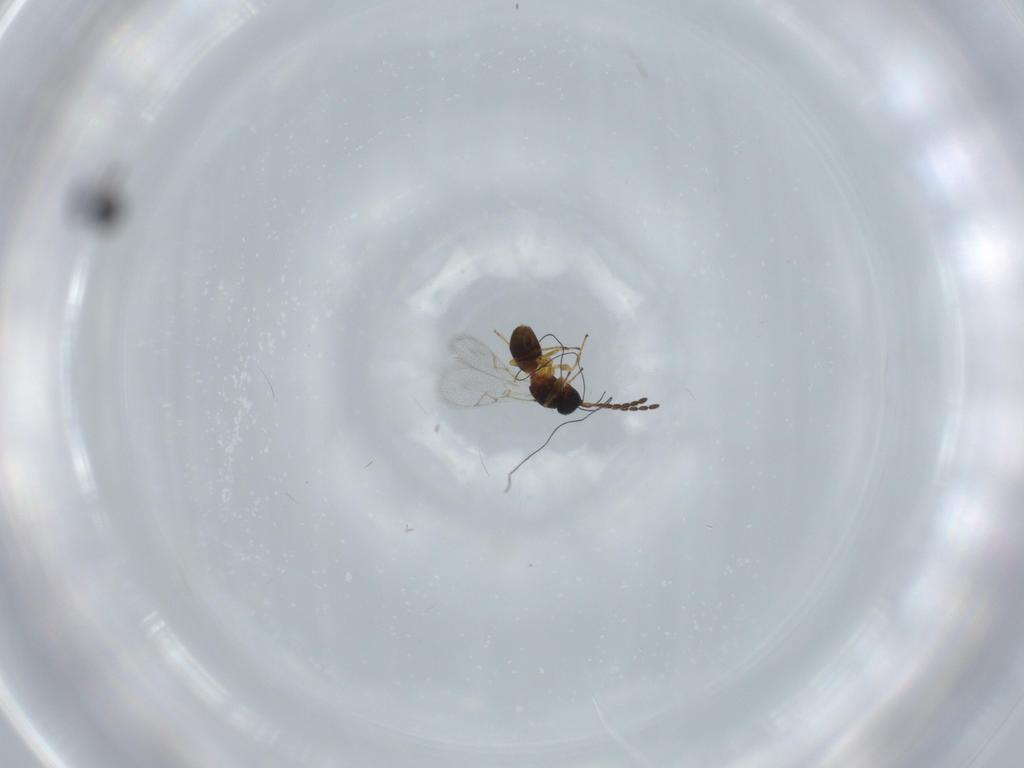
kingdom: Animalia
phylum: Arthropoda
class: Insecta
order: Hymenoptera
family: Platygastridae
